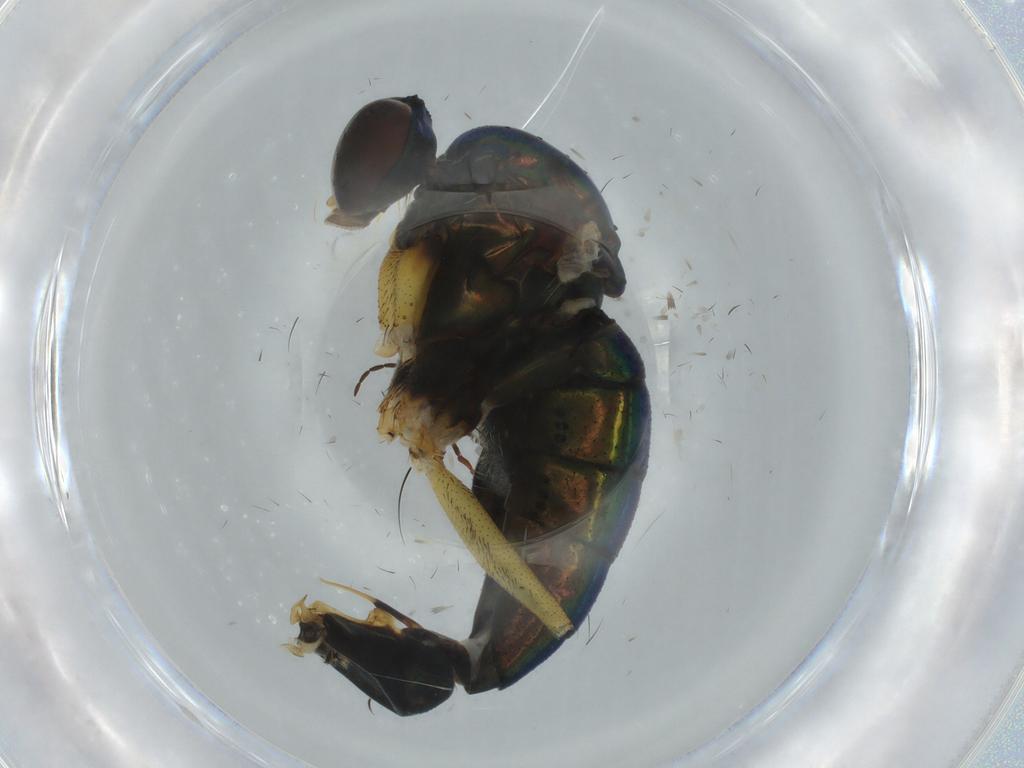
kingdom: Animalia
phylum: Arthropoda
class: Insecta
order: Diptera
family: Dolichopodidae
